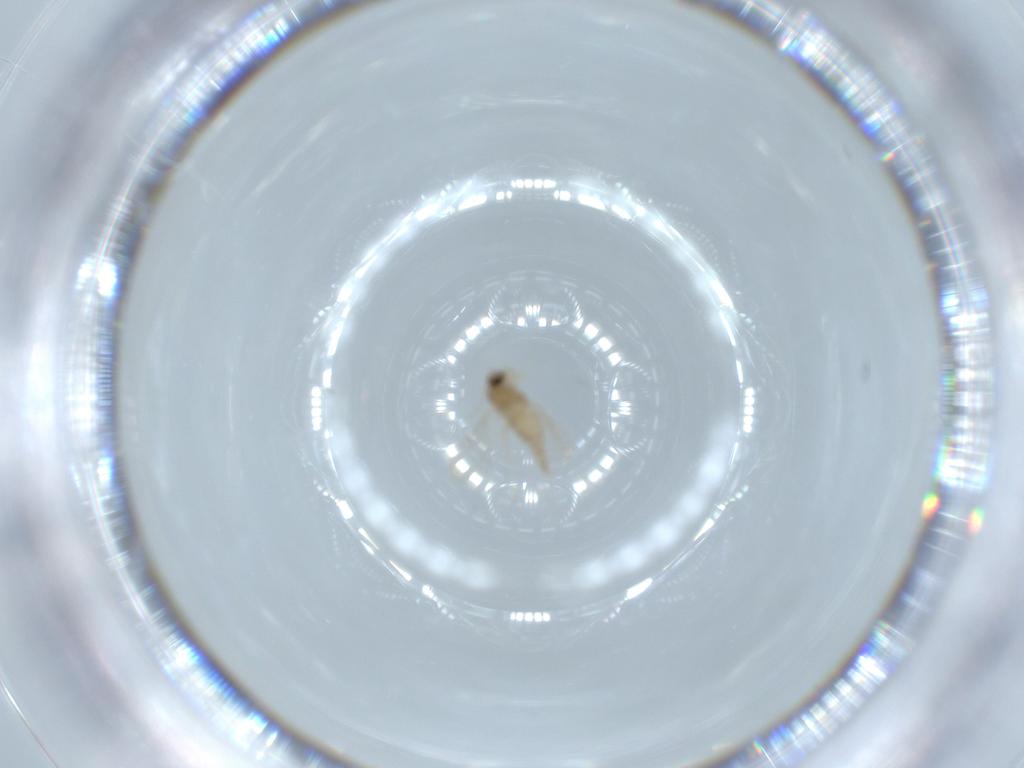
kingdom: Animalia
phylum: Arthropoda
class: Insecta
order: Diptera
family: Cecidomyiidae
